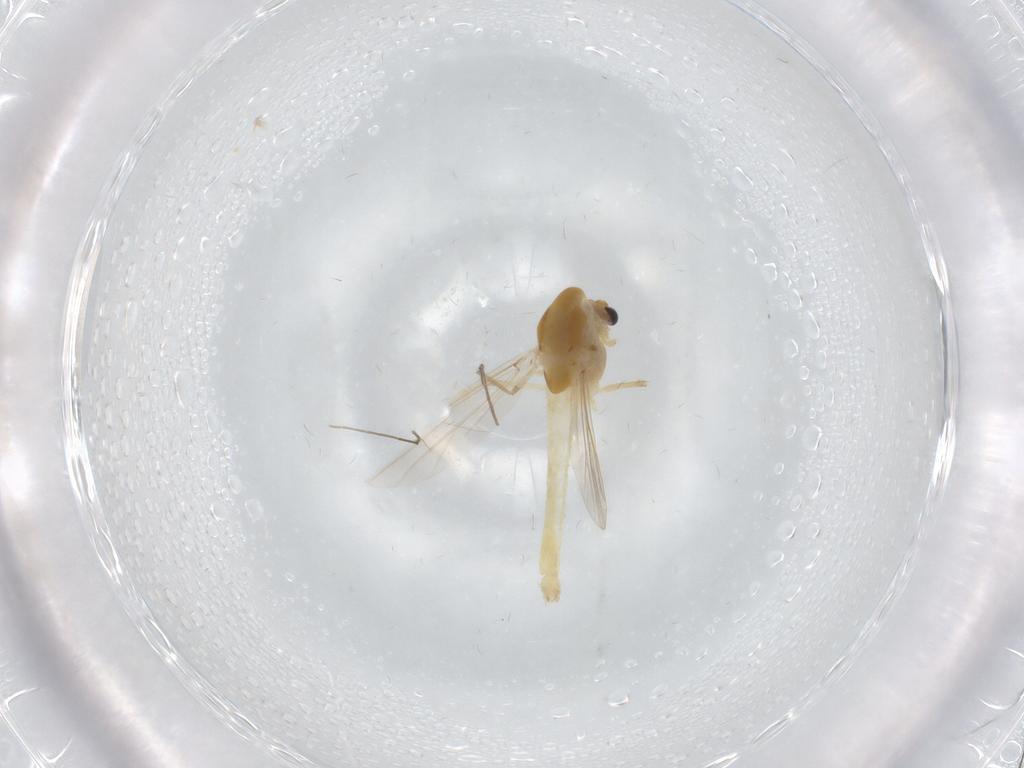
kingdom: Animalia
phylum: Arthropoda
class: Insecta
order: Diptera
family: Chironomidae
